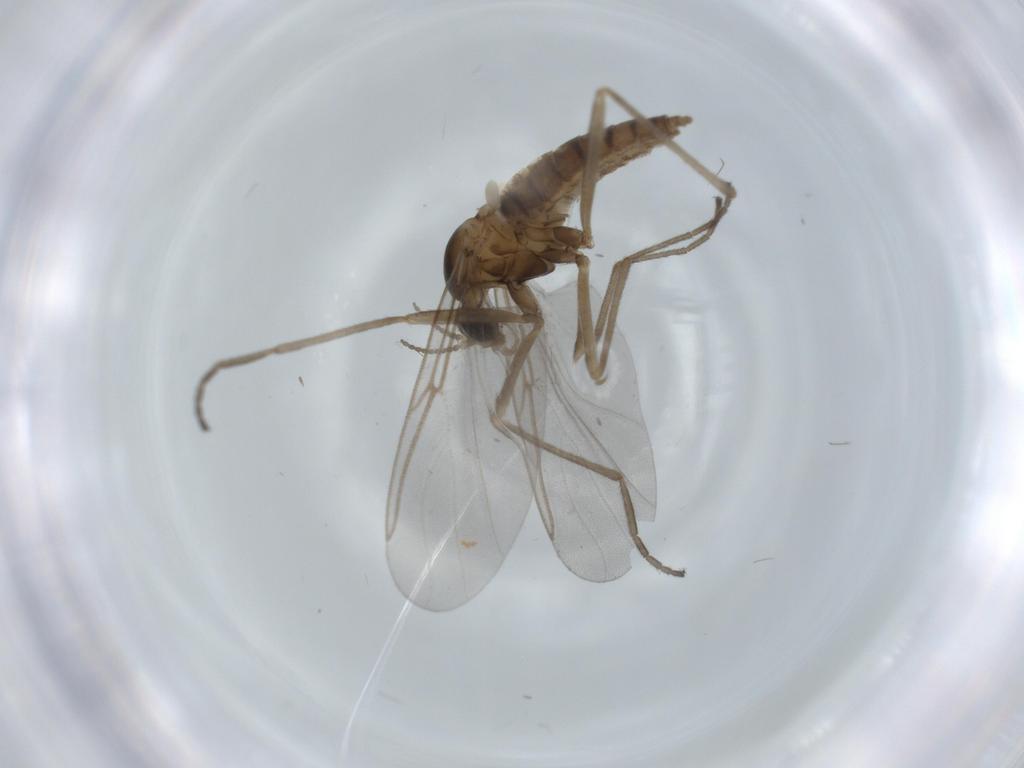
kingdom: Animalia
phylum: Arthropoda
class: Insecta
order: Diptera
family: Cecidomyiidae
